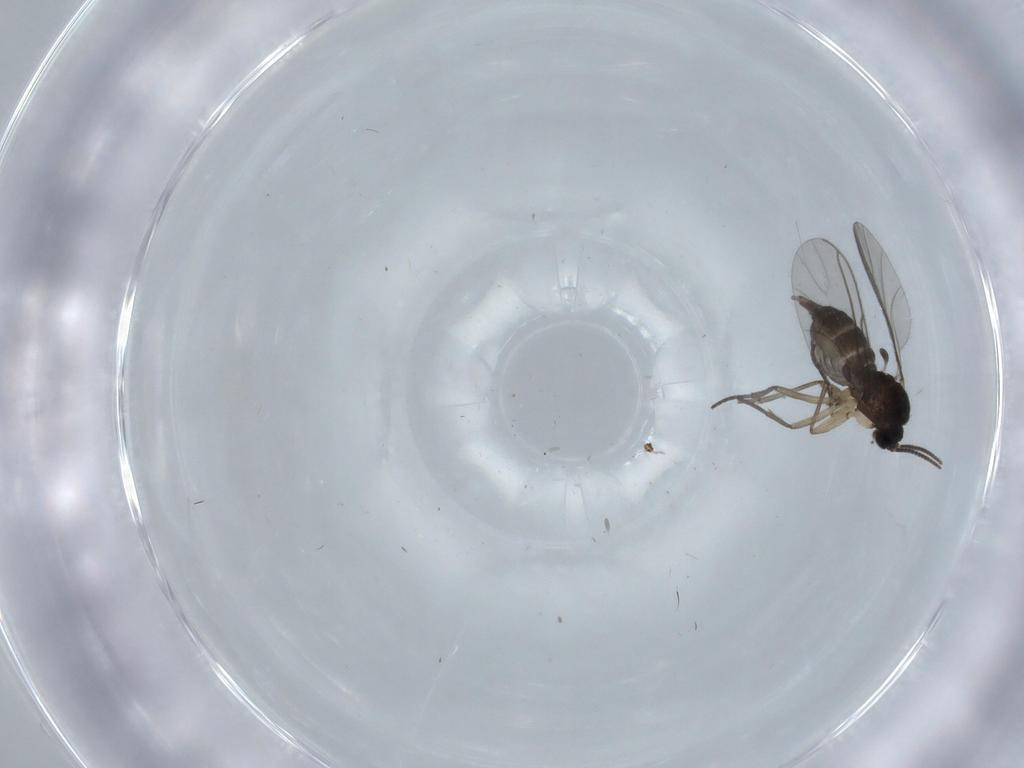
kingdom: Animalia
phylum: Arthropoda
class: Insecta
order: Diptera
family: Sciaridae
